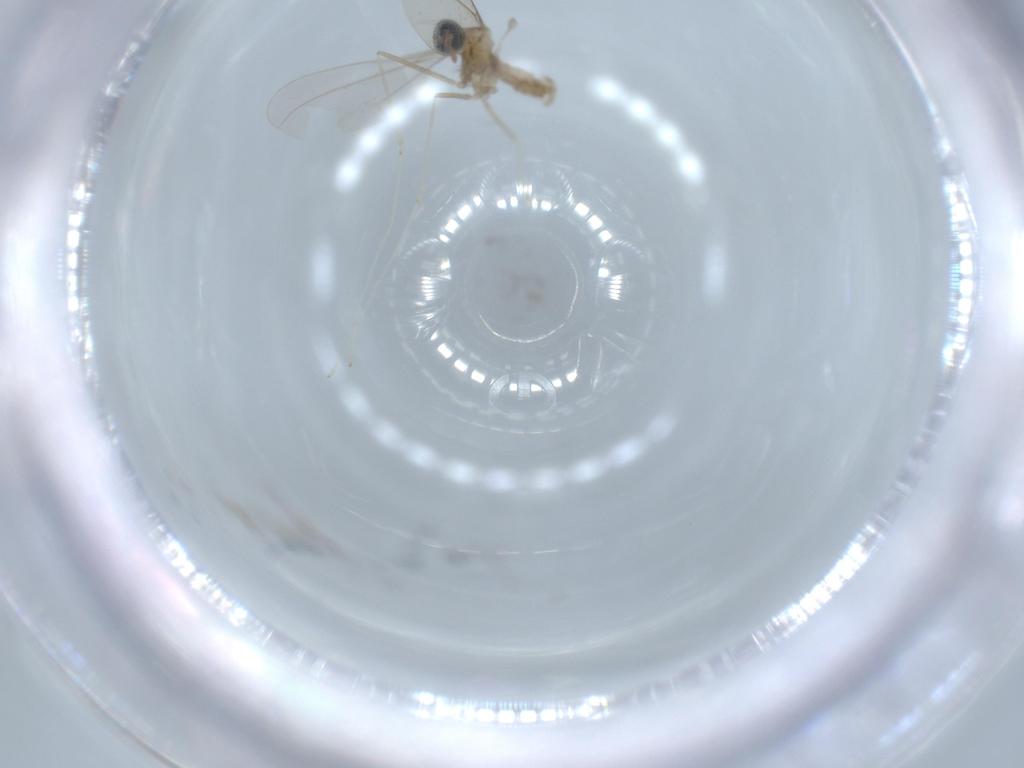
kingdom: Animalia
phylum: Arthropoda
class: Insecta
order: Diptera
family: Cecidomyiidae
